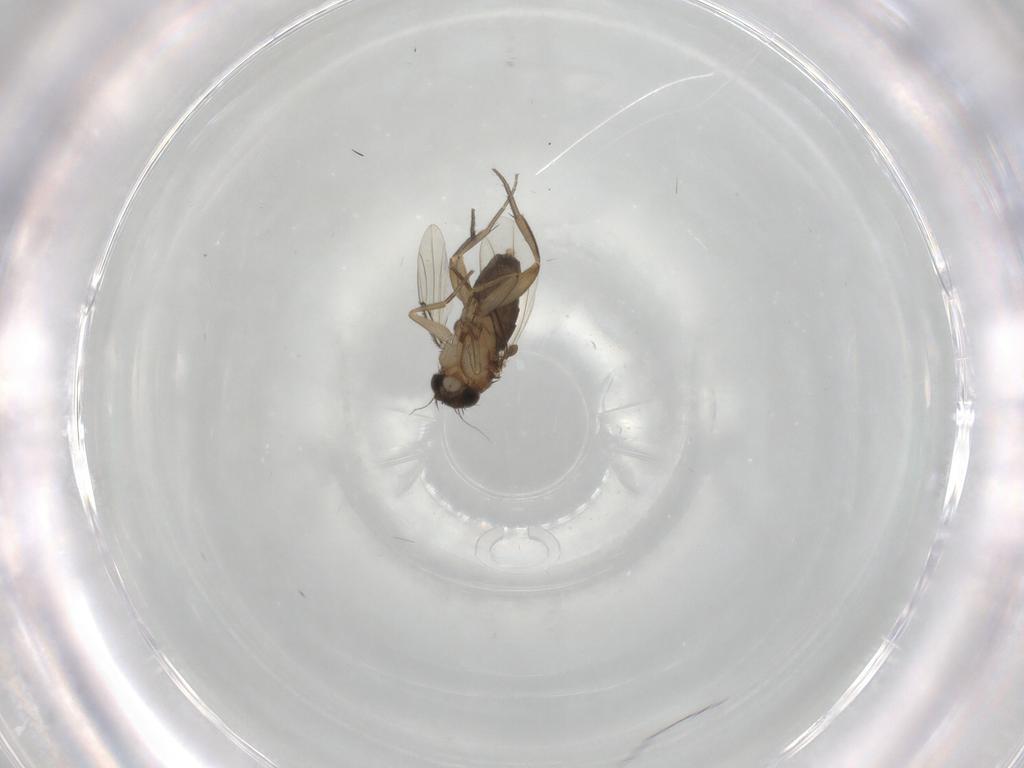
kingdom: Animalia
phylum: Arthropoda
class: Insecta
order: Diptera
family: Phoridae
